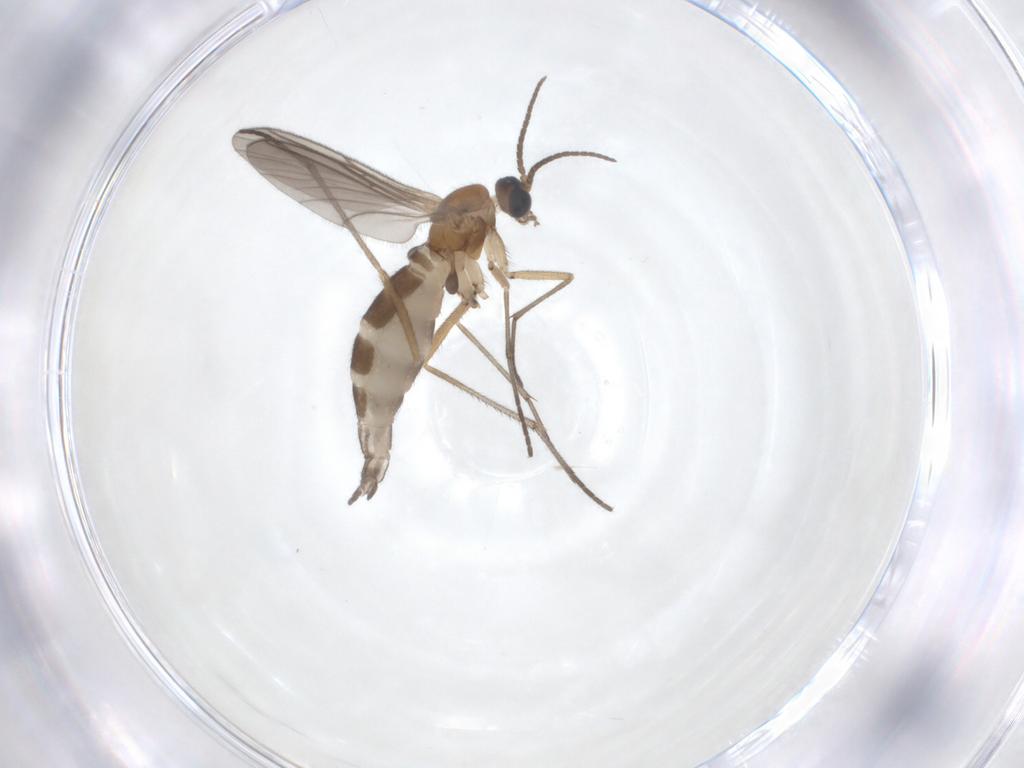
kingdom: Animalia
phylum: Arthropoda
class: Insecta
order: Diptera
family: Sciaridae
